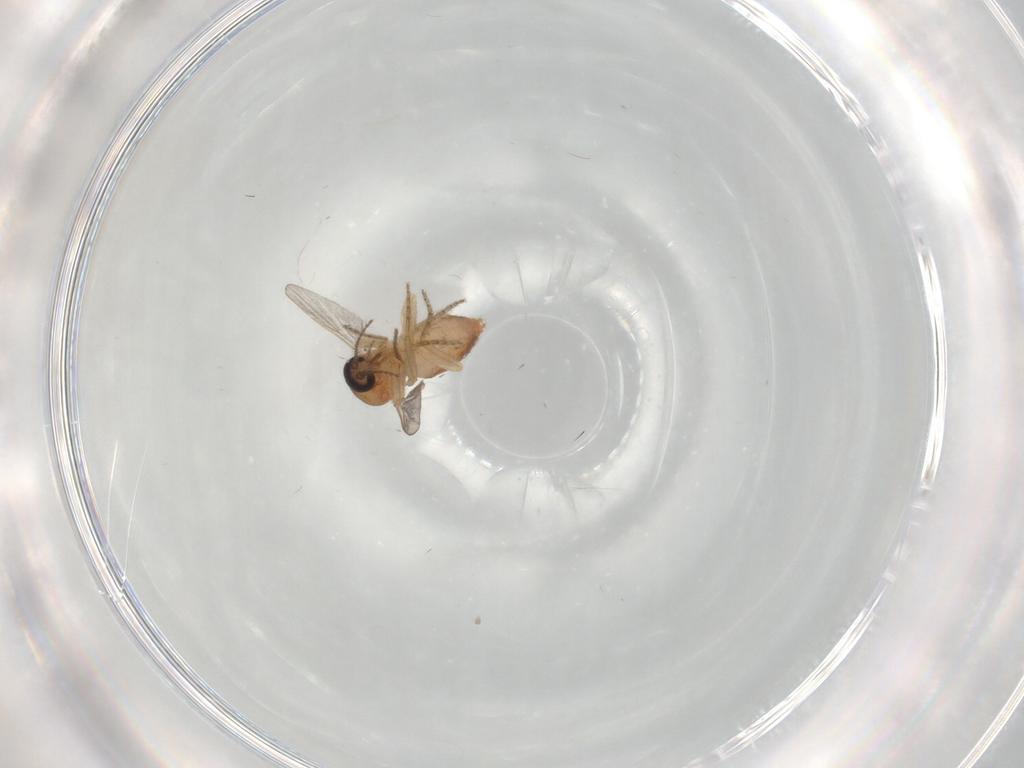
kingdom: Animalia
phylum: Arthropoda
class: Insecta
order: Diptera
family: Ceratopogonidae
